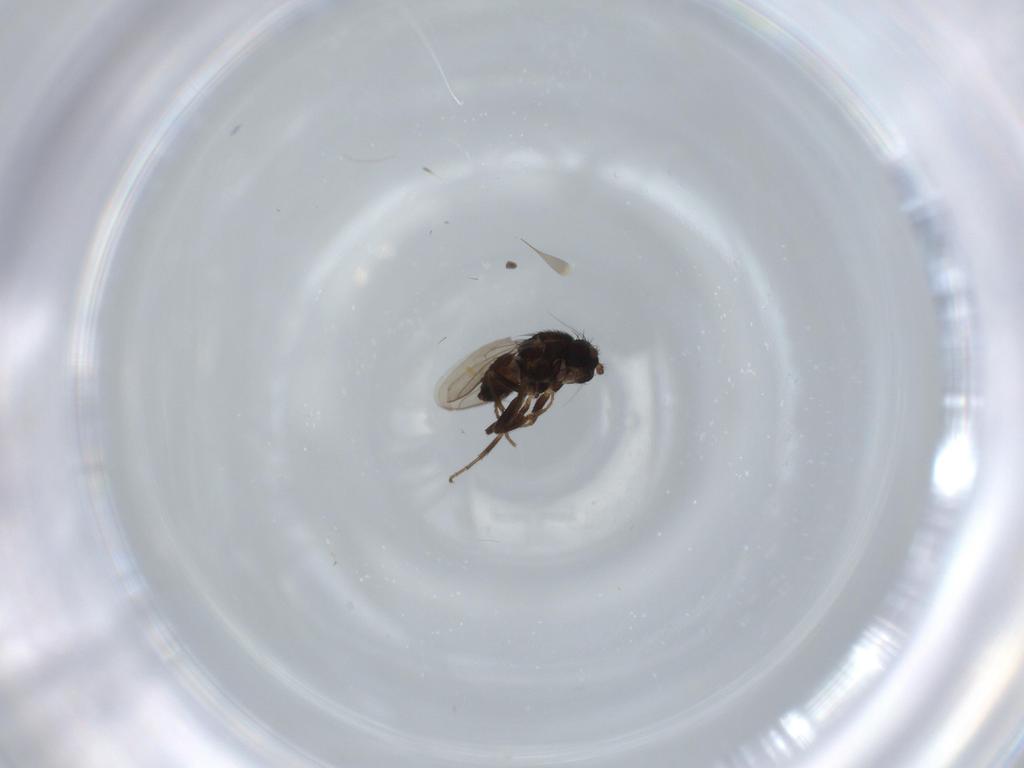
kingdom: Animalia
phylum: Arthropoda
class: Insecta
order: Diptera
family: Sphaeroceridae
